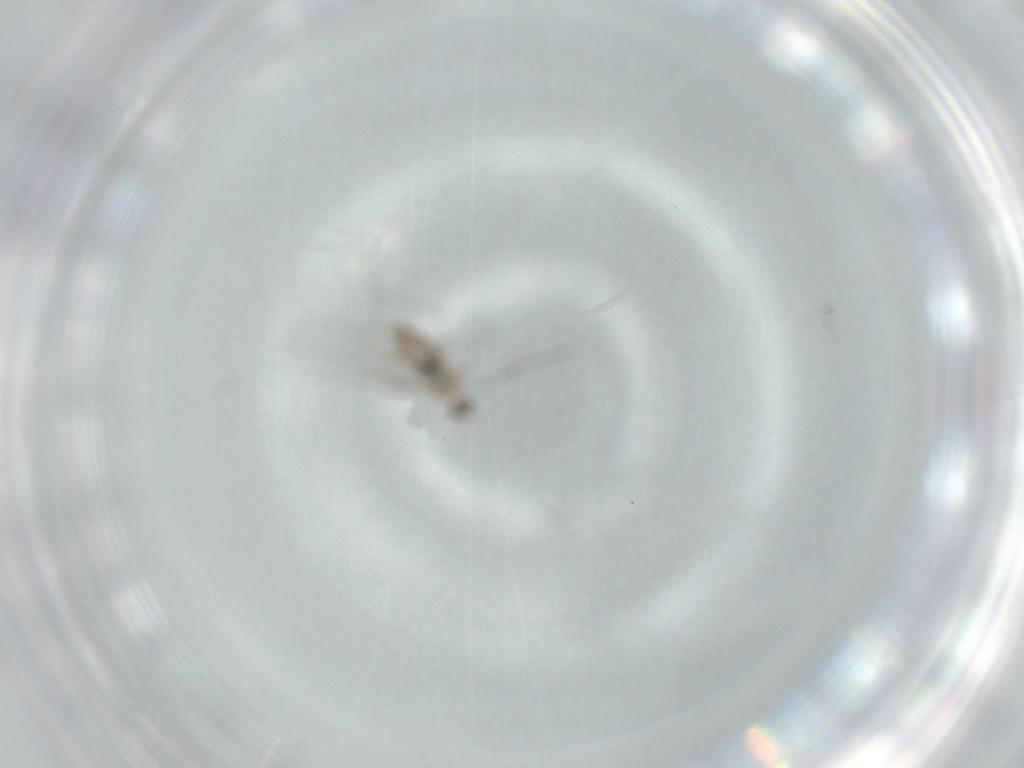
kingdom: Animalia
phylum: Arthropoda
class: Insecta
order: Diptera
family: Cecidomyiidae
